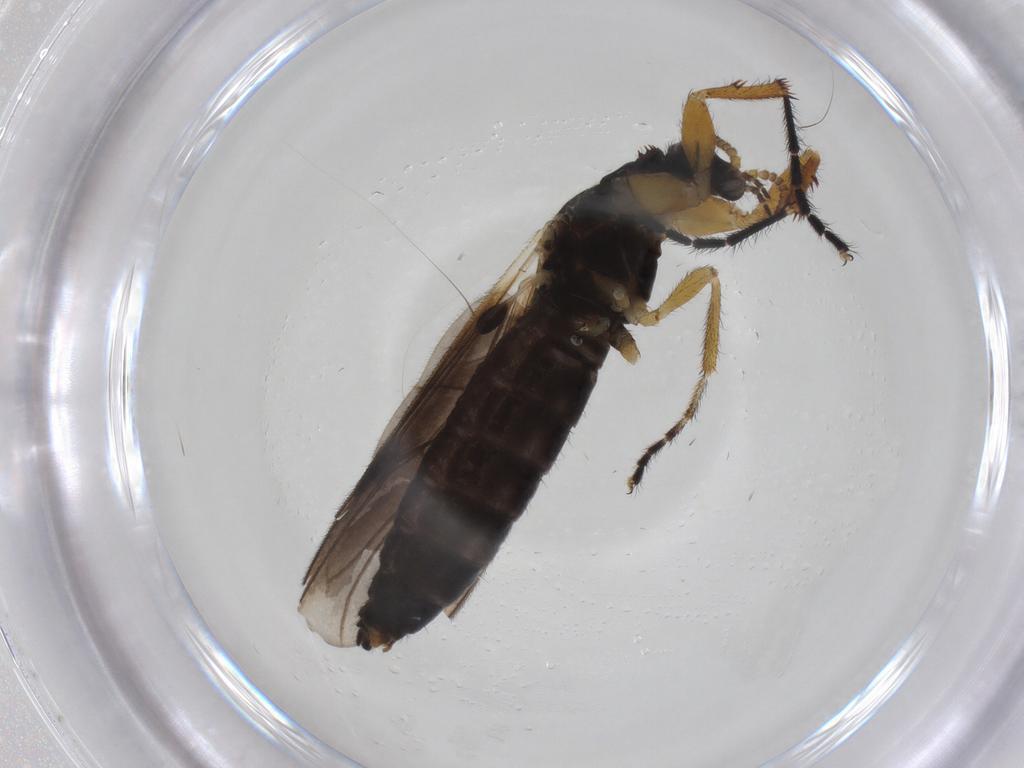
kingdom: Animalia
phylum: Arthropoda
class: Insecta
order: Diptera
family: Bibionidae
